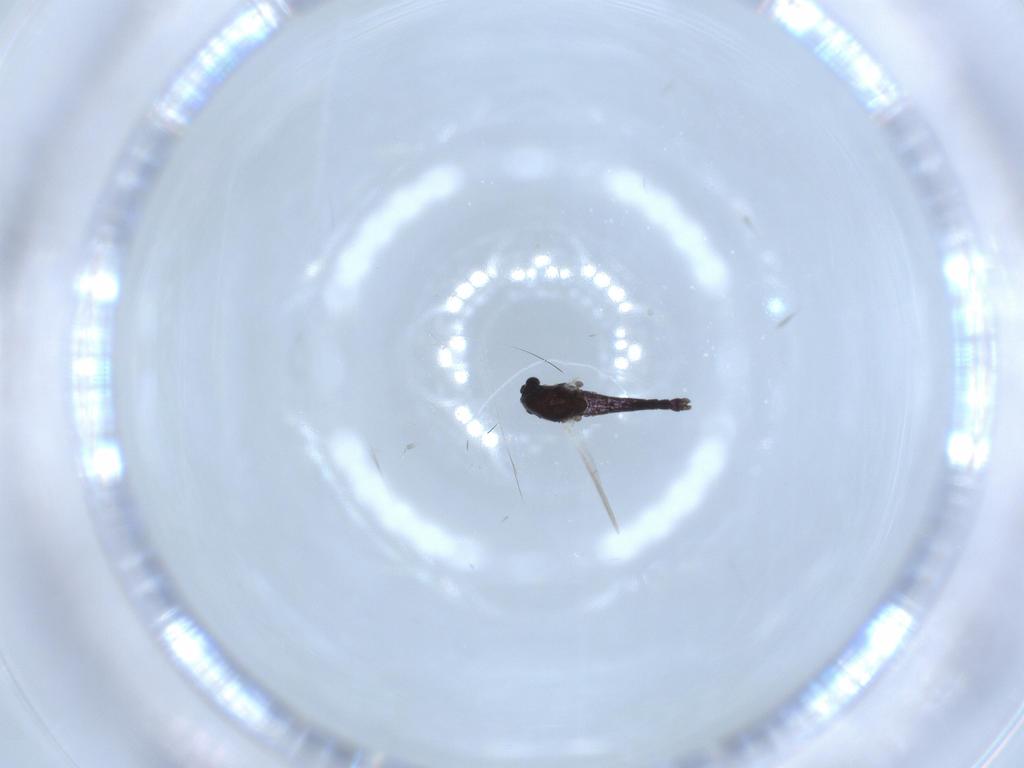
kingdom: Animalia
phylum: Arthropoda
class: Insecta
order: Diptera
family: Chironomidae
